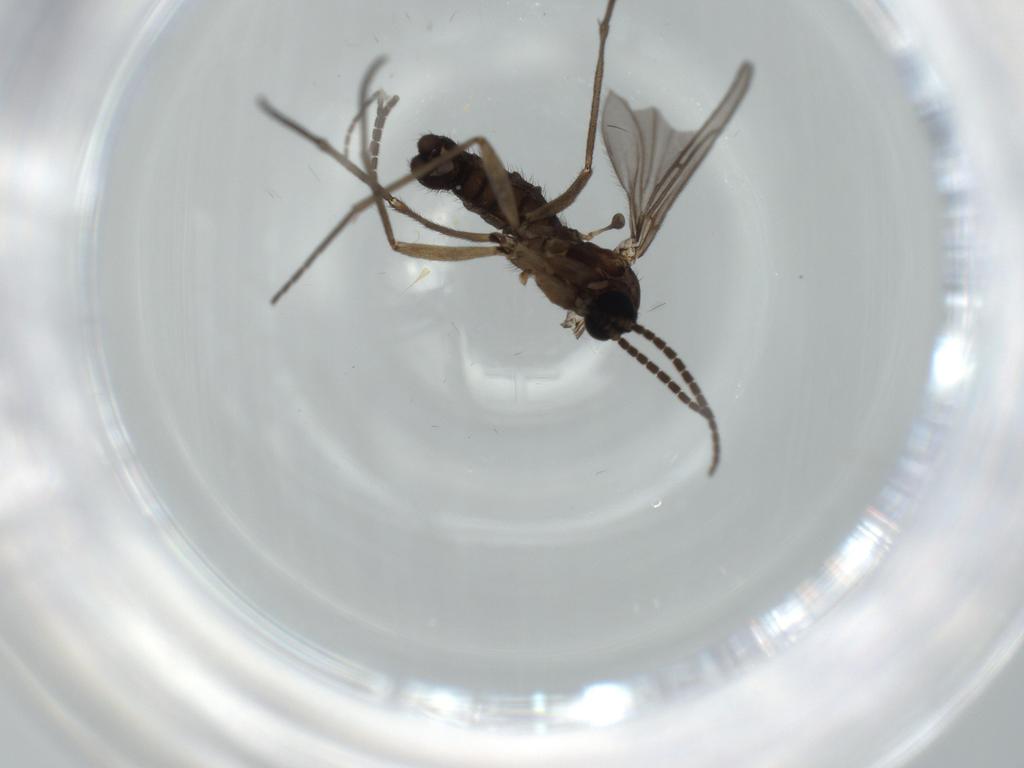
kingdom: Animalia
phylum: Arthropoda
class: Insecta
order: Diptera
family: Sciaridae
